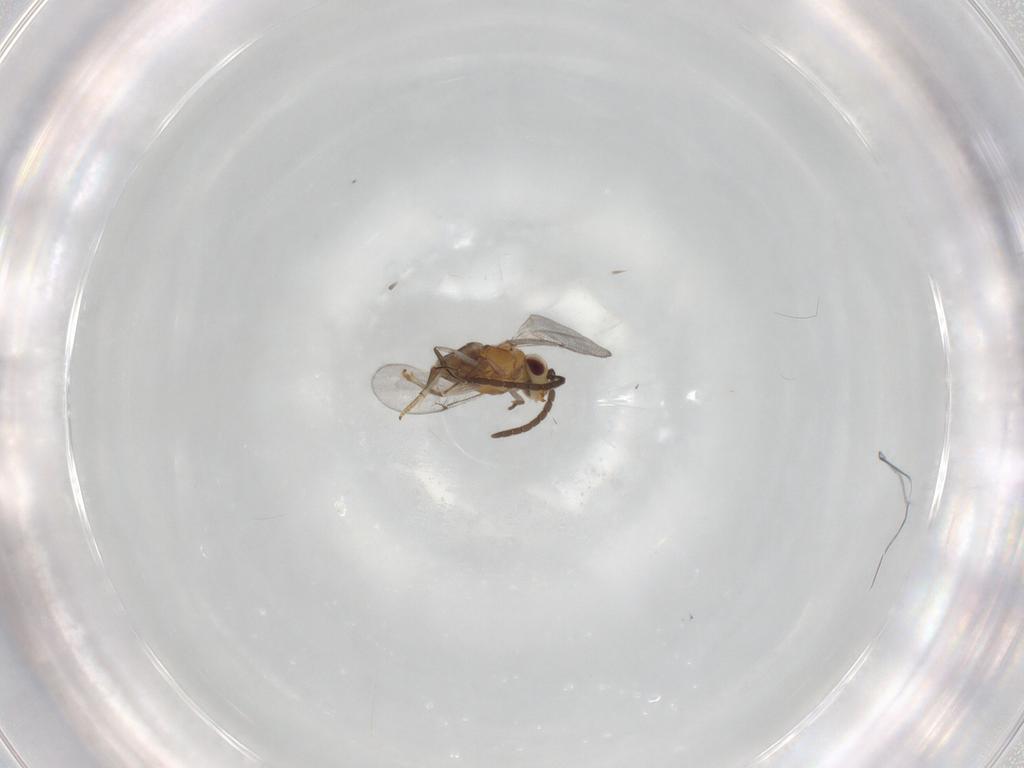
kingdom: Animalia
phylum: Arthropoda
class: Insecta
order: Hymenoptera
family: Encyrtidae
